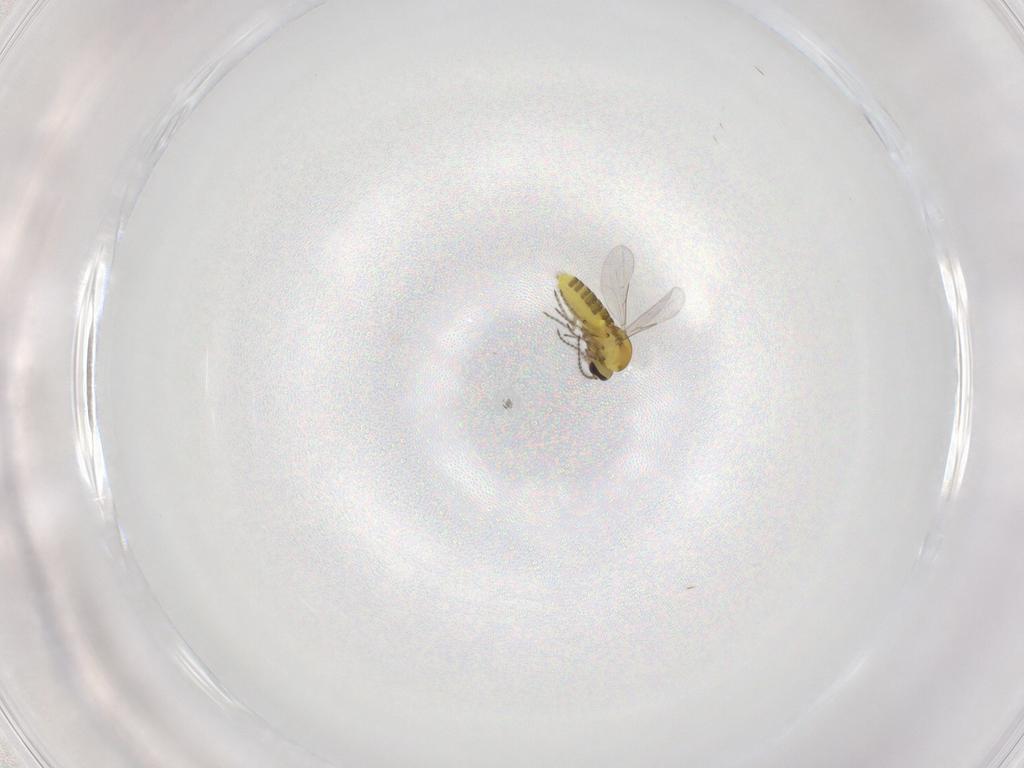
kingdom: Animalia
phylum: Arthropoda
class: Insecta
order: Diptera
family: Ceratopogonidae
